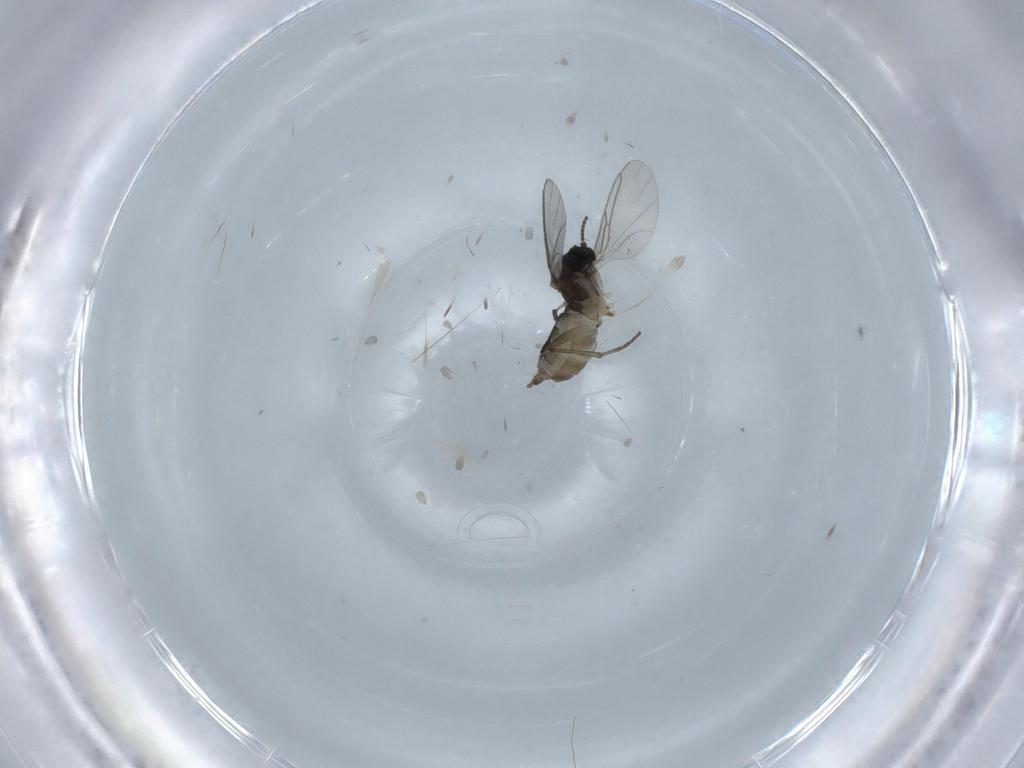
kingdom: Animalia
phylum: Arthropoda
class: Insecta
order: Diptera
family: Sciaridae
